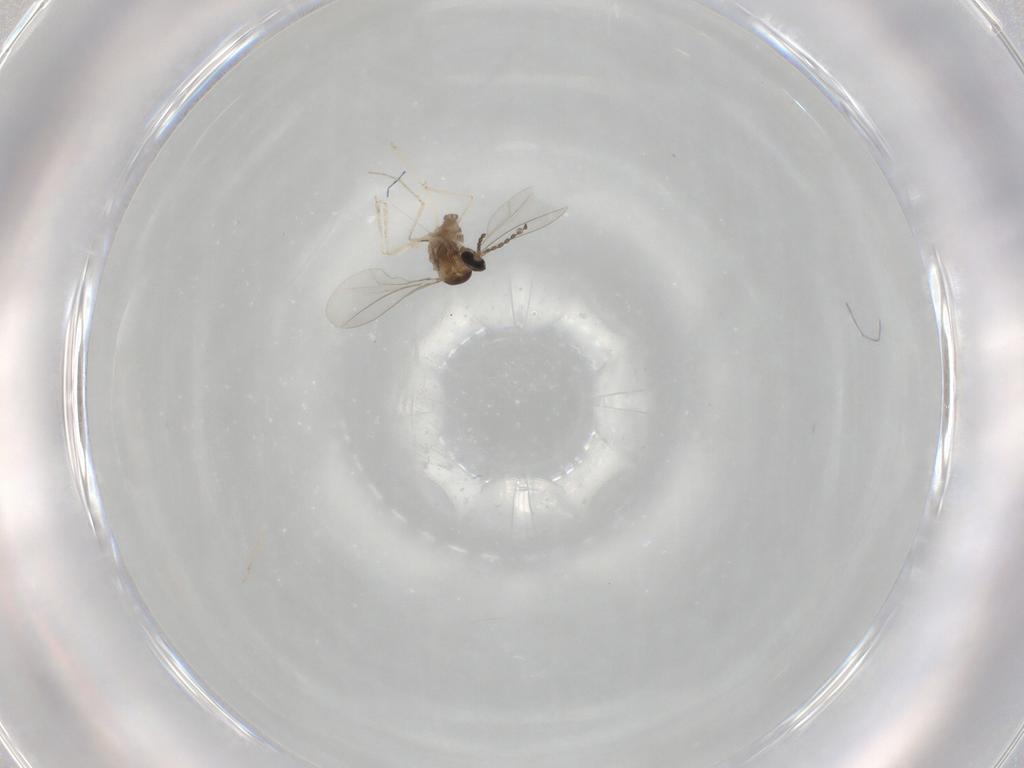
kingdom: Animalia
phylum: Arthropoda
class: Insecta
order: Diptera
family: Cecidomyiidae
